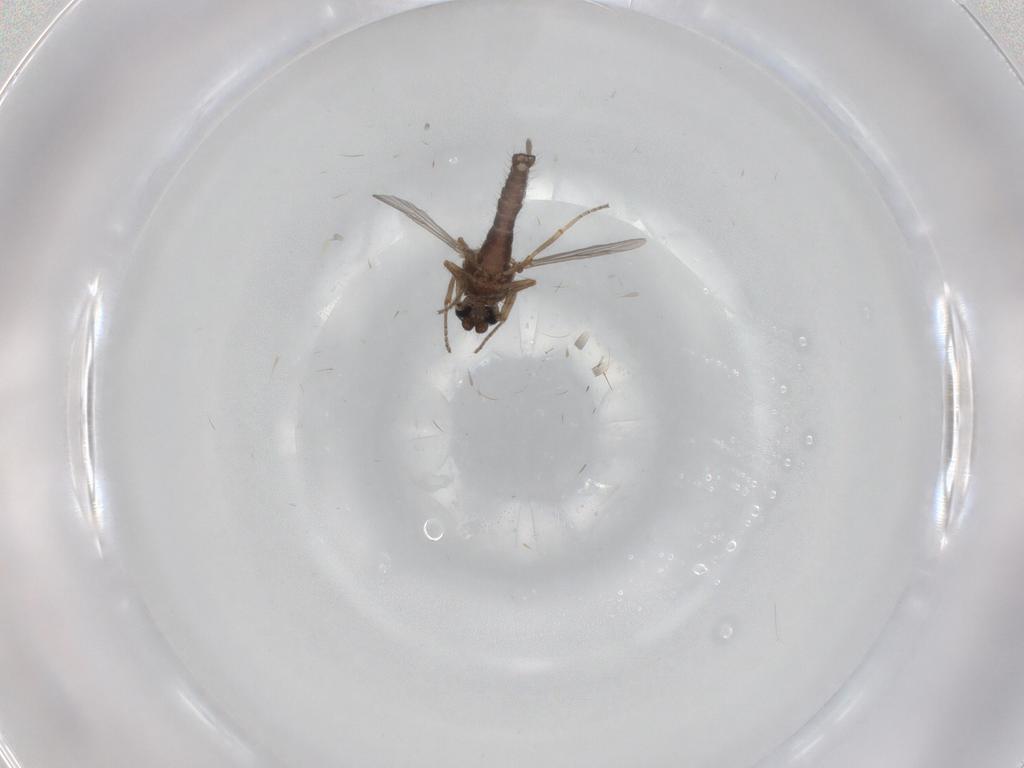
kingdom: Animalia
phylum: Arthropoda
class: Insecta
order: Diptera
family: Ceratopogonidae
